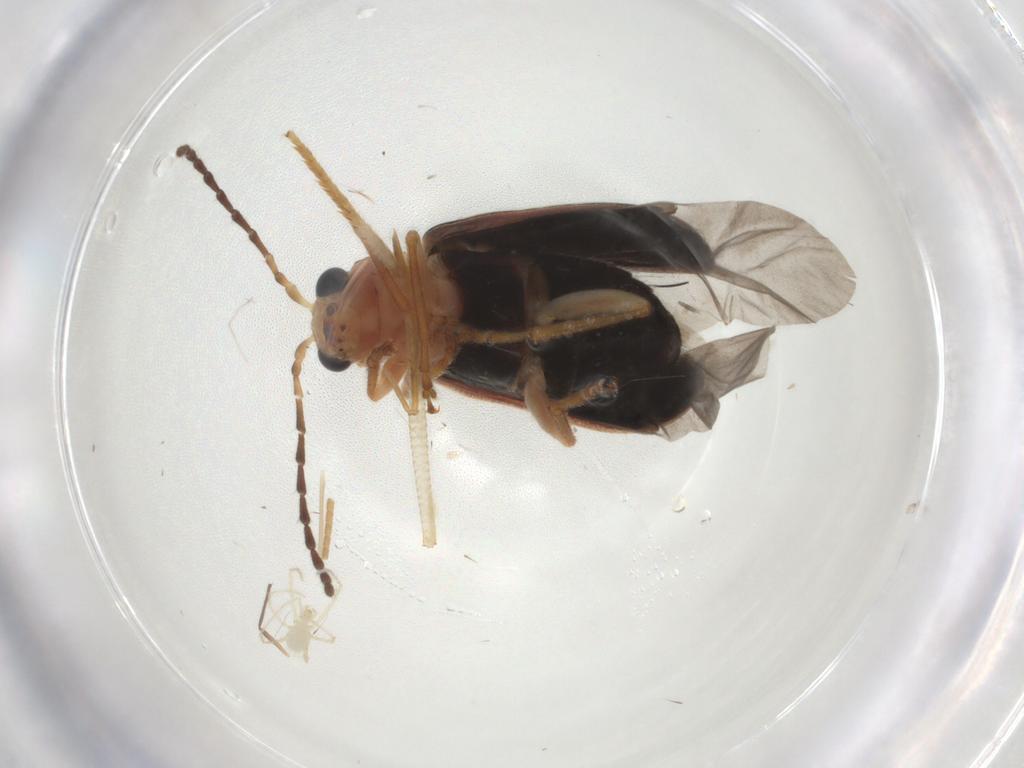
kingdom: Animalia
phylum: Arthropoda
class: Insecta
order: Coleoptera
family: Chrysomelidae
